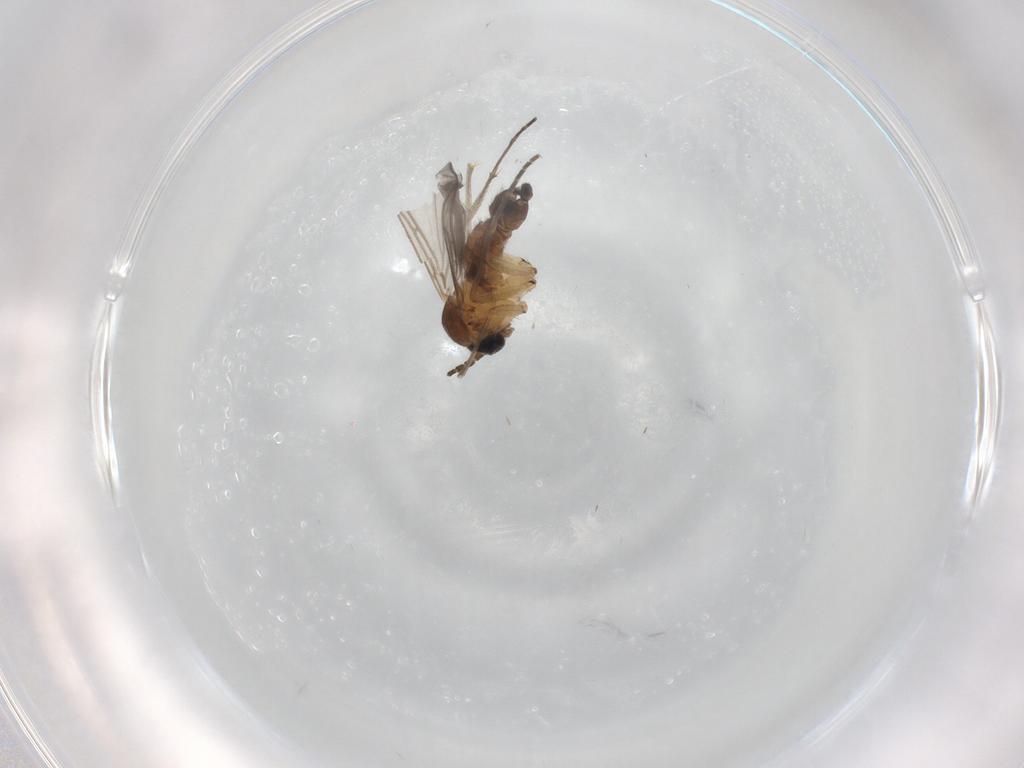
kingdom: Animalia
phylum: Arthropoda
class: Insecta
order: Diptera
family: Sciaridae
